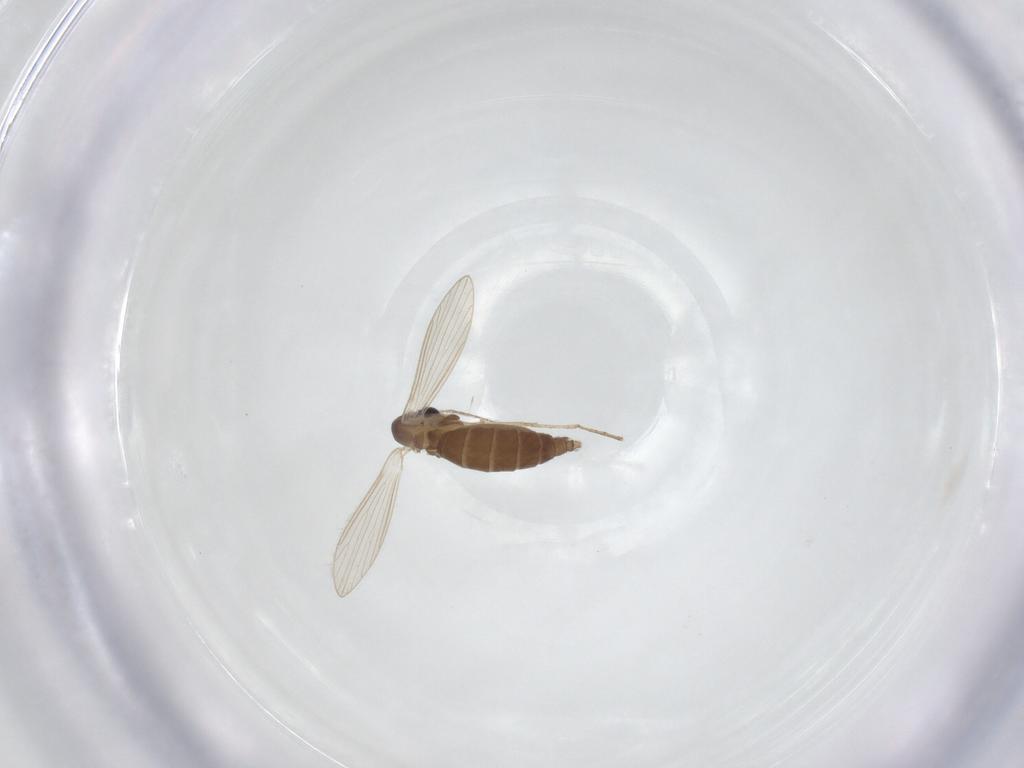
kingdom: Animalia
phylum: Arthropoda
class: Insecta
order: Diptera
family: Psychodidae
